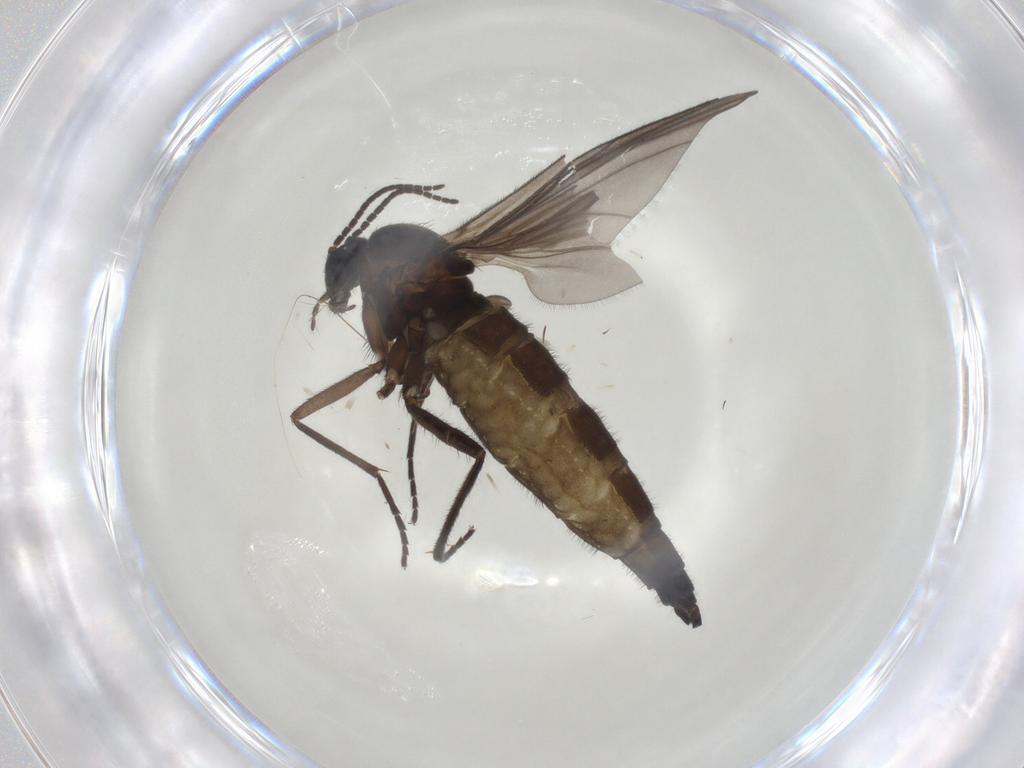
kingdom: Animalia
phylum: Arthropoda
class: Insecta
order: Diptera
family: Sciaridae
